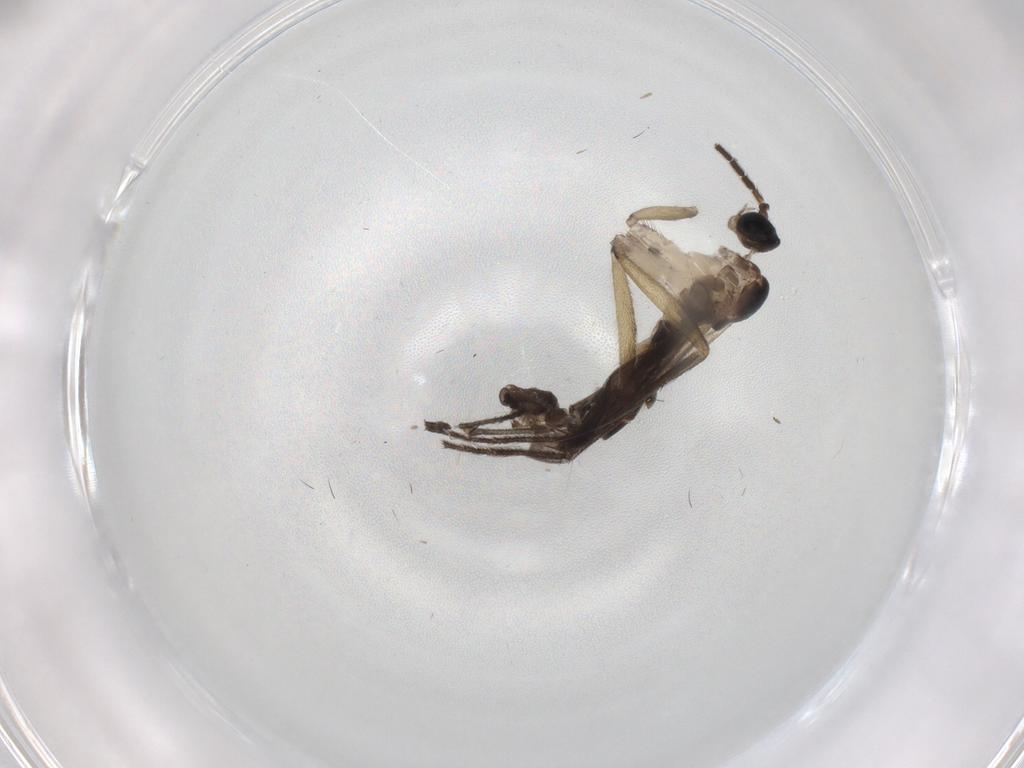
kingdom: Animalia
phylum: Arthropoda
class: Insecta
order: Diptera
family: Cecidomyiidae
